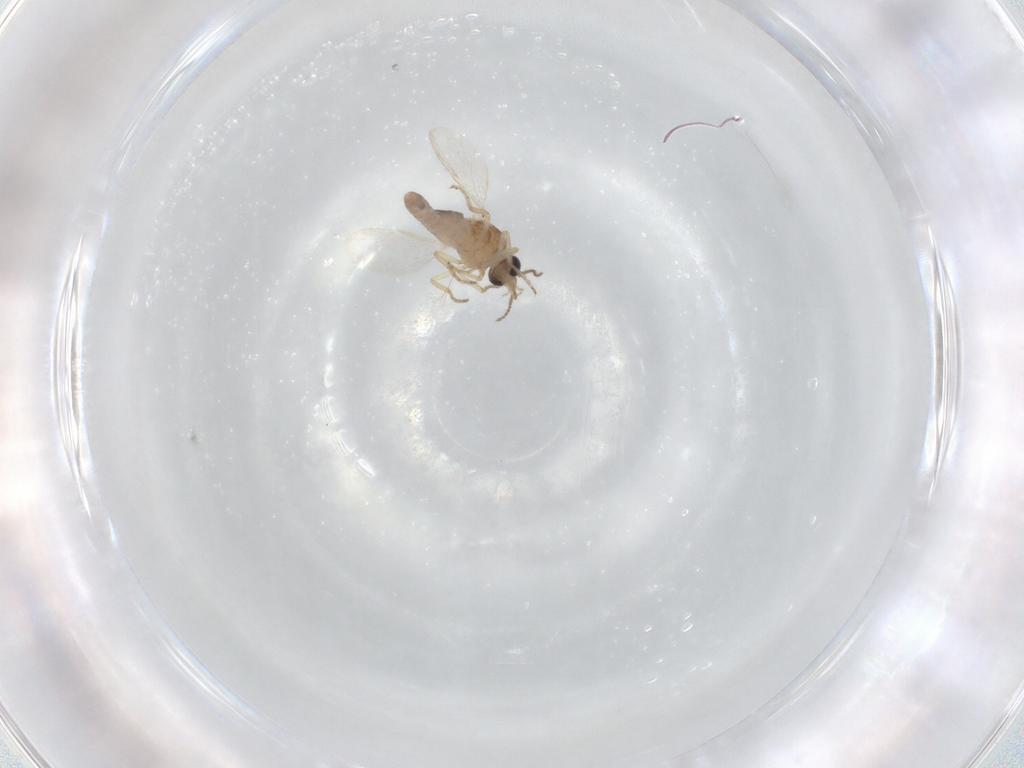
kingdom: Animalia
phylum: Arthropoda
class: Insecta
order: Diptera
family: Ceratopogonidae
